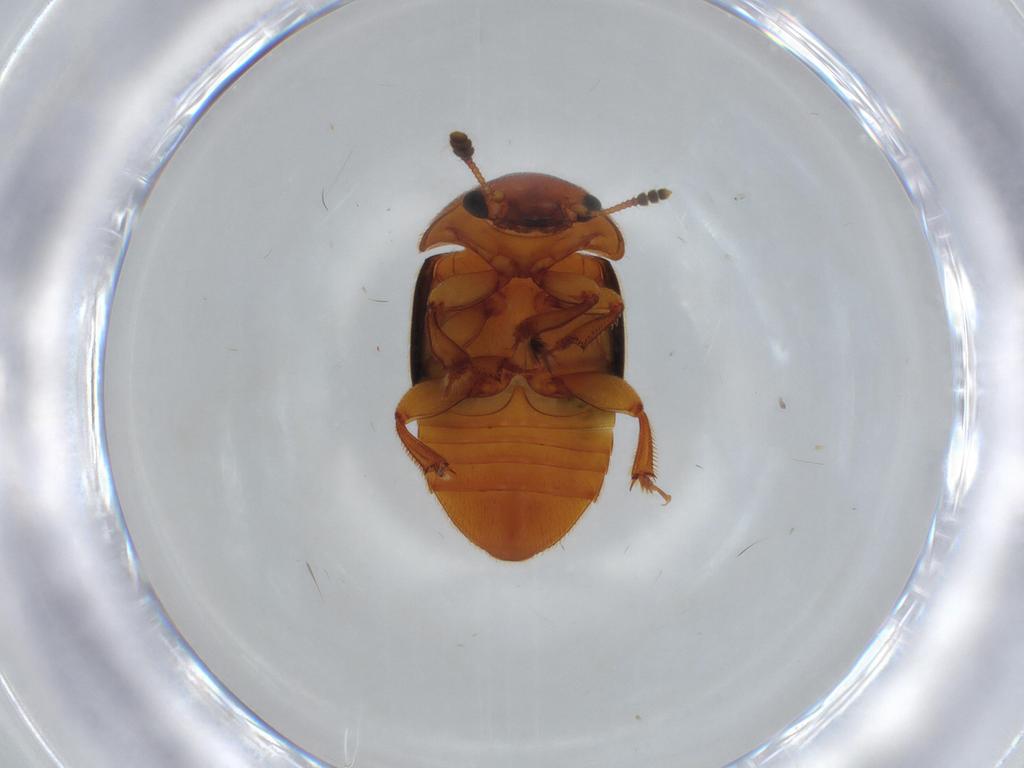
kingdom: Animalia
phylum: Arthropoda
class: Insecta
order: Coleoptera
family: Nitidulidae
